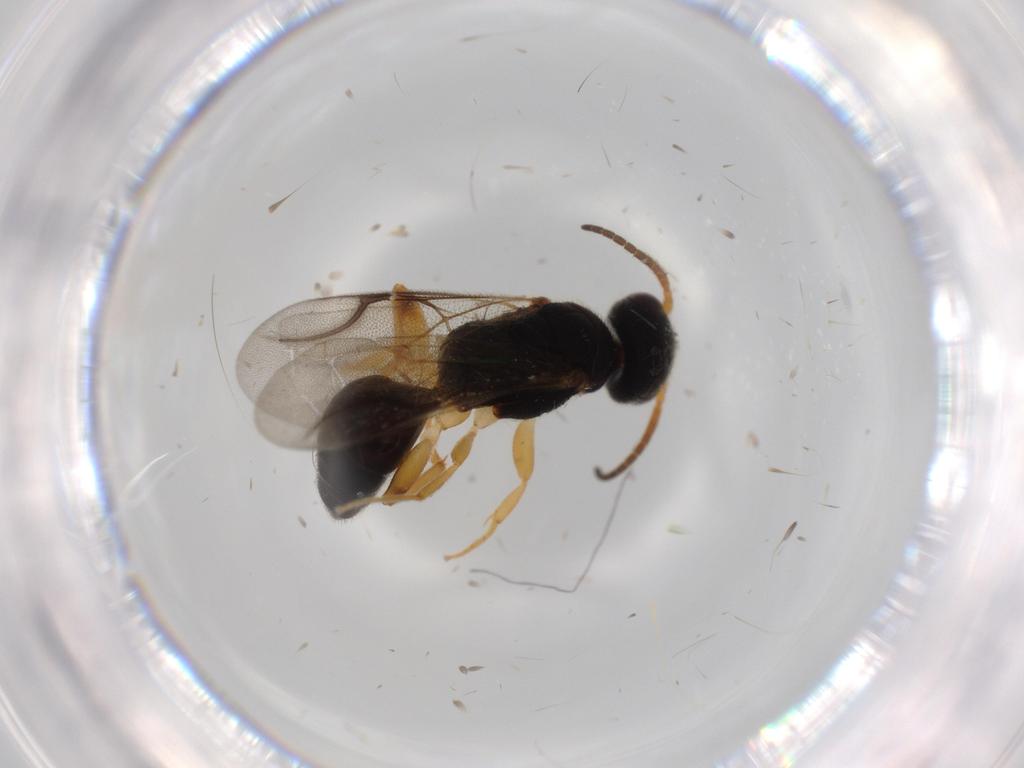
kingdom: Animalia
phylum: Arthropoda
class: Insecta
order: Hymenoptera
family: Bethylidae
